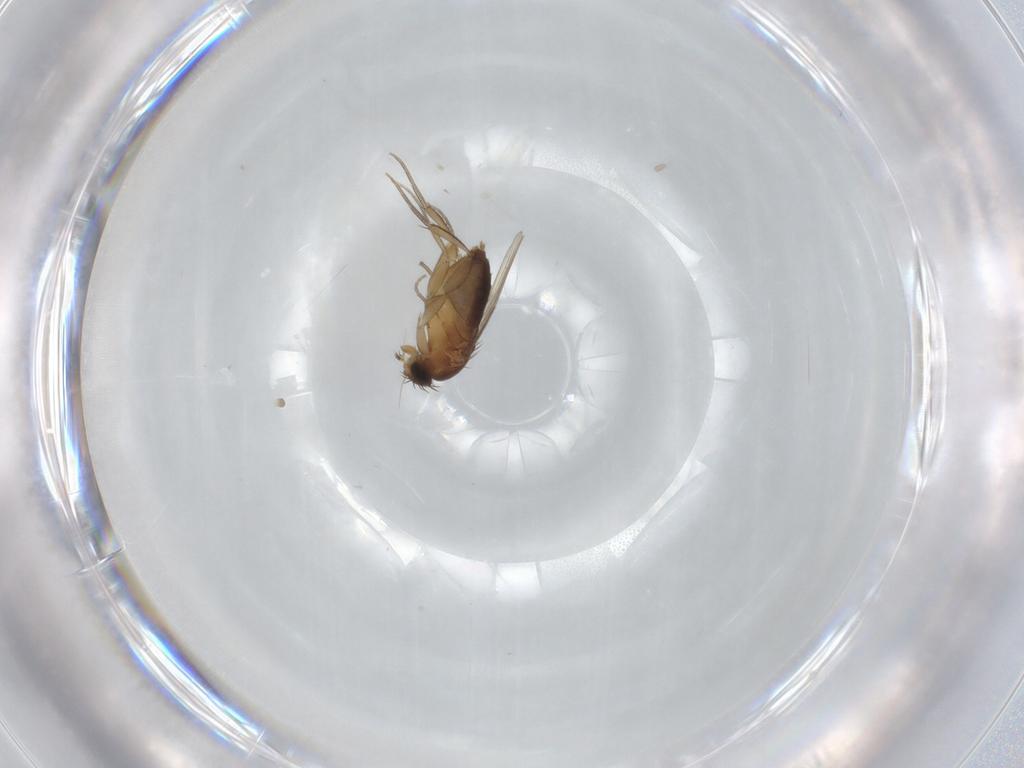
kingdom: Animalia
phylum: Arthropoda
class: Insecta
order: Diptera
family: Phoridae
